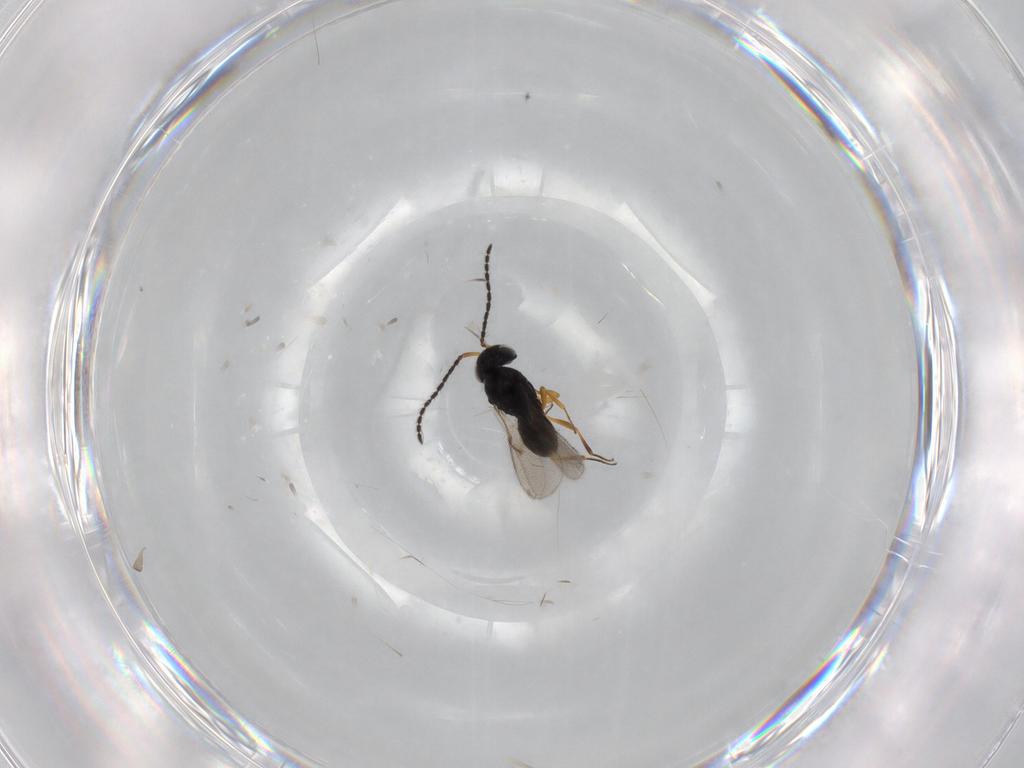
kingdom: Animalia
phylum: Arthropoda
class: Insecta
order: Hymenoptera
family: Scelionidae
